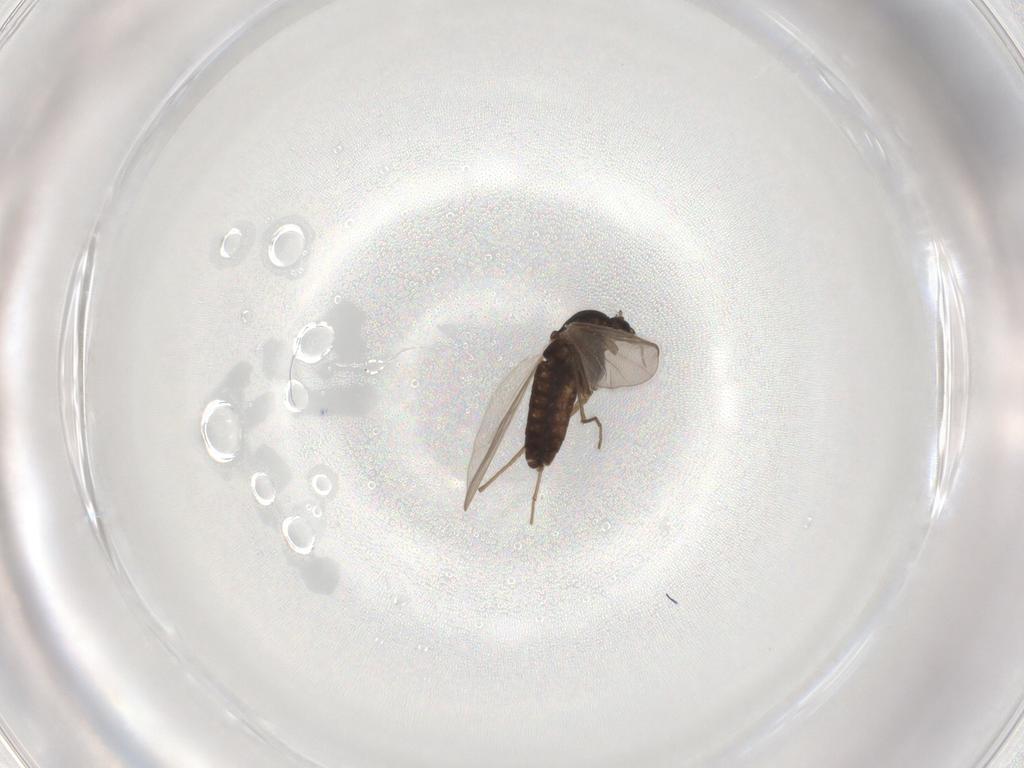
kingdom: Animalia
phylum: Arthropoda
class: Insecta
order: Diptera
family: Chironomidae
